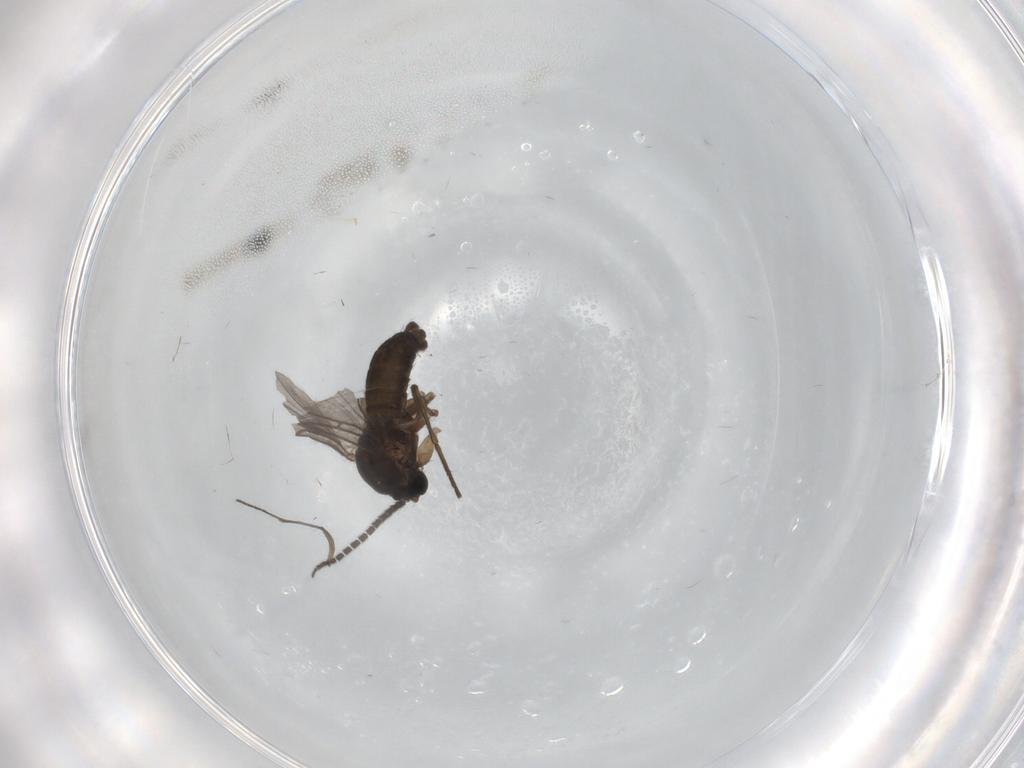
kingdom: Animalia
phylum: Arthropoda
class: Insecta
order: Diptera
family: Sciaridae
